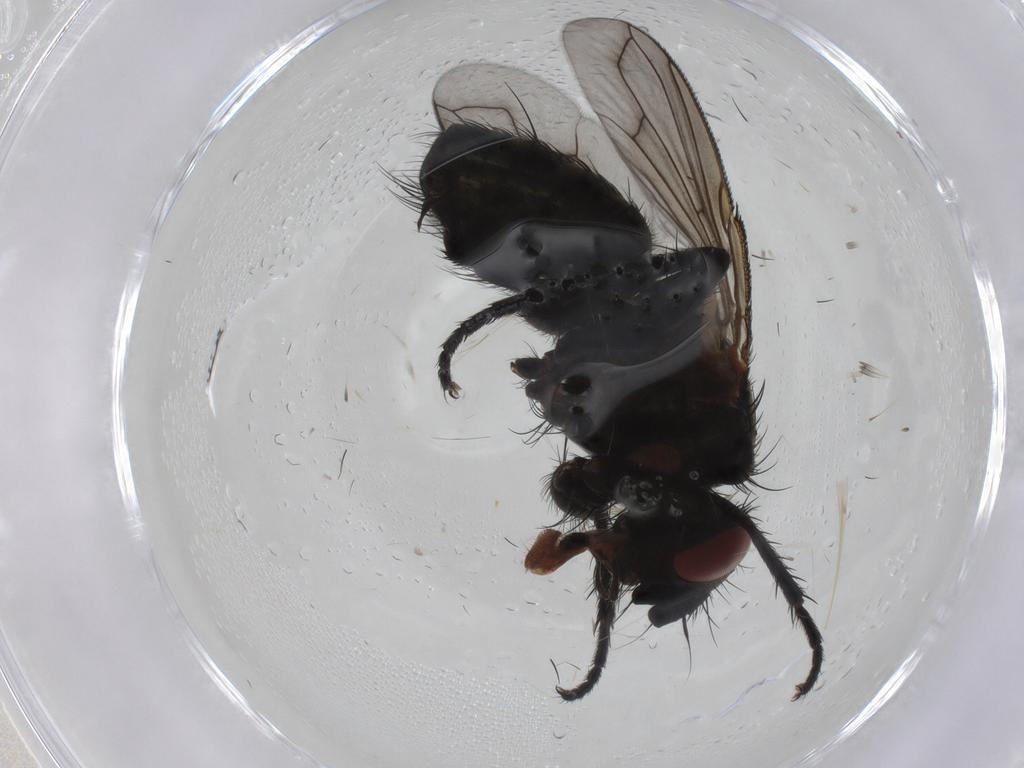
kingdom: Animalia
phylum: Arthropoda
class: Insecta
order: Diptera
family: Tachinidae
